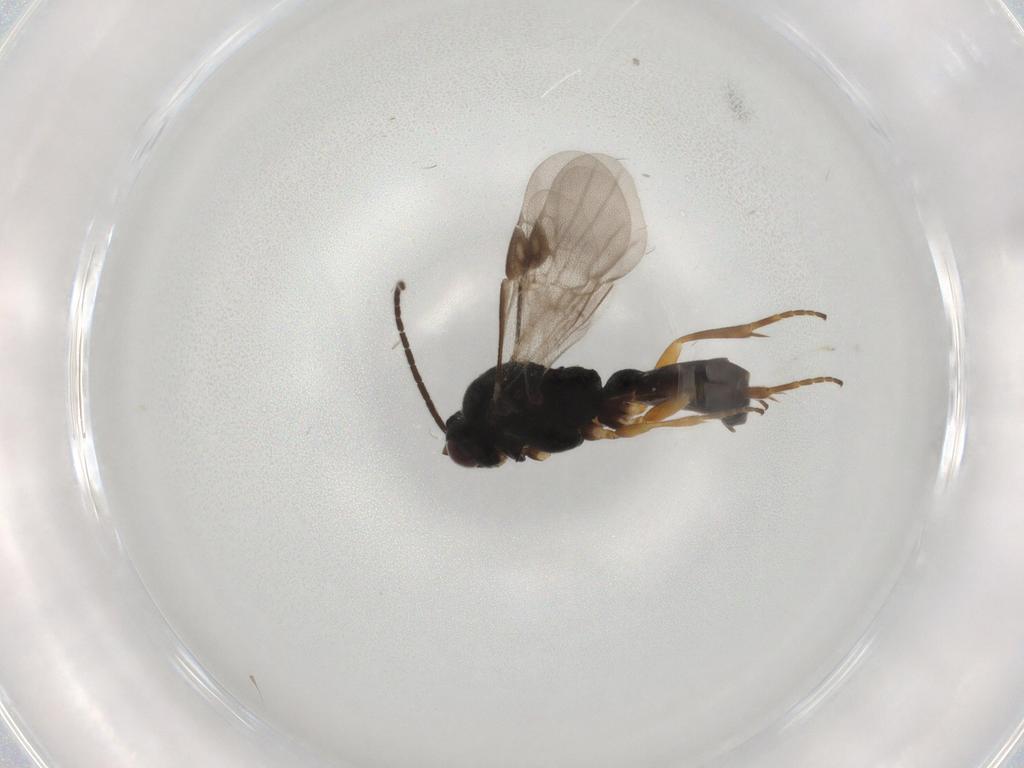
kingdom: Animalia
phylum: Arthropoda
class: Insecta
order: Hymenoptera
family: Braconidae
